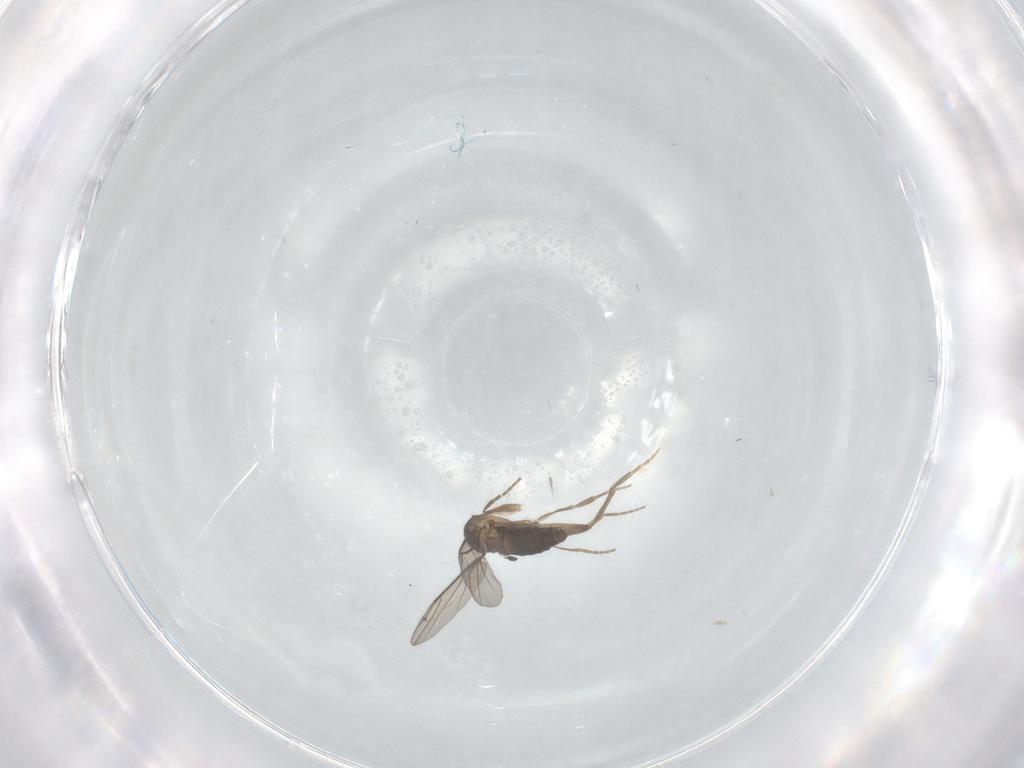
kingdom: Animalia
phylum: Arthropoda
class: Insecta
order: Diptera
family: Phoridae
